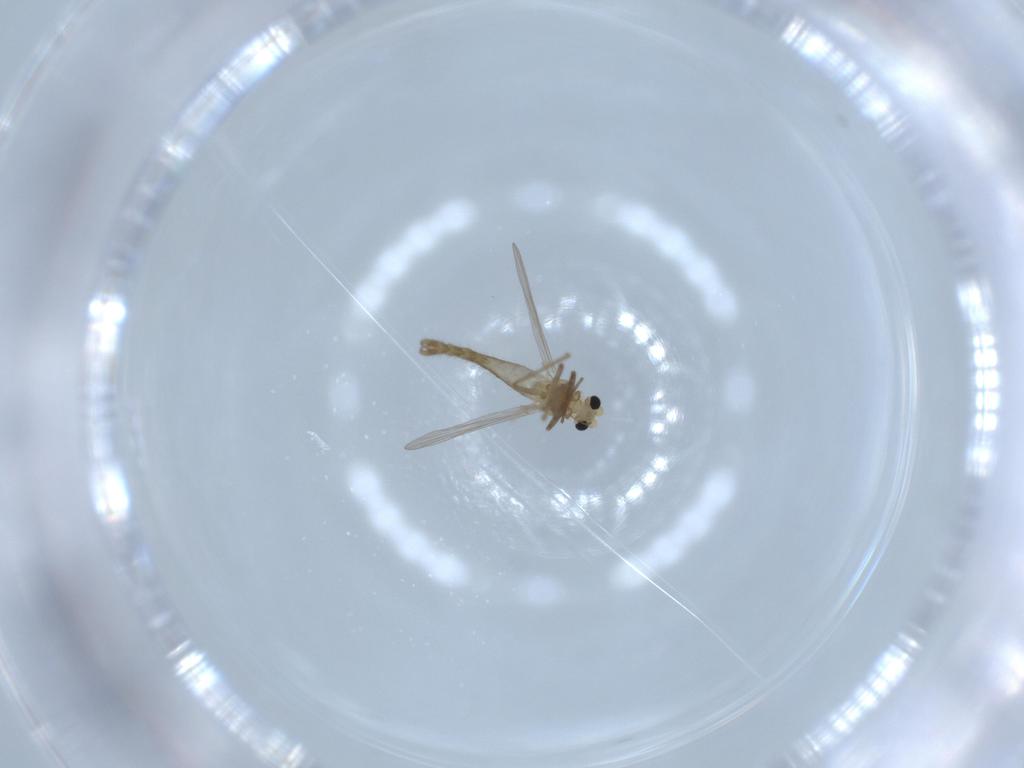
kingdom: Animalia
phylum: Arthropoda
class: Insecta
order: Diptera
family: Chironomidae
